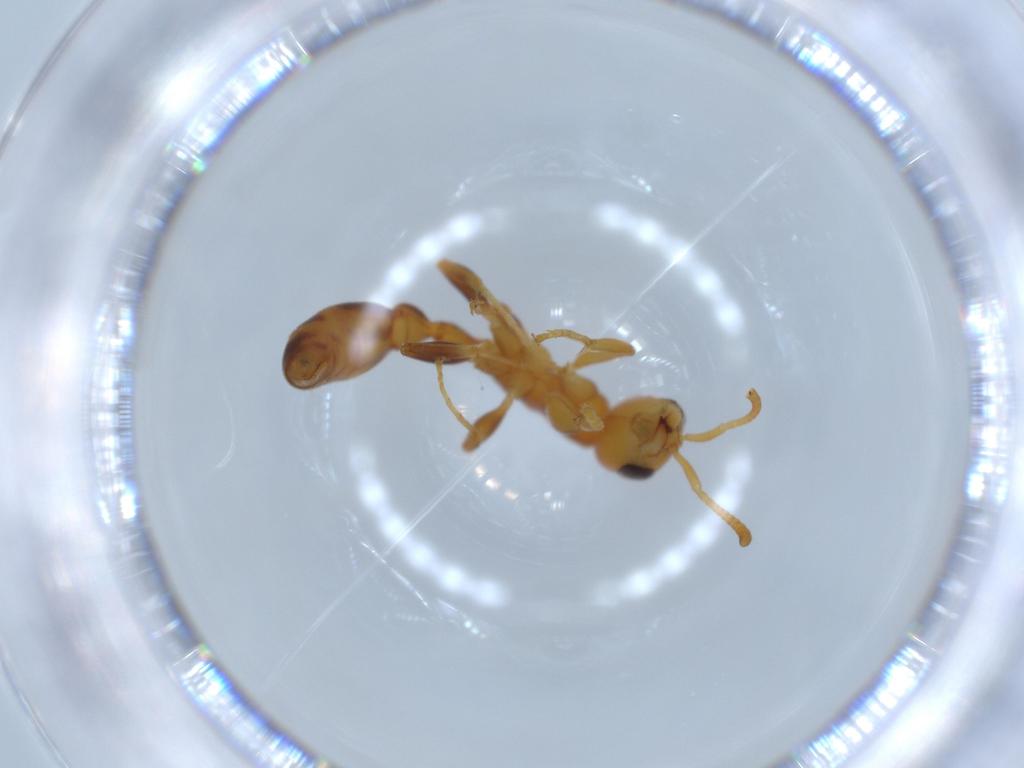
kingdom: Animalia
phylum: Arthropoda
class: Insecta
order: Hymenoptera
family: Formicidae
